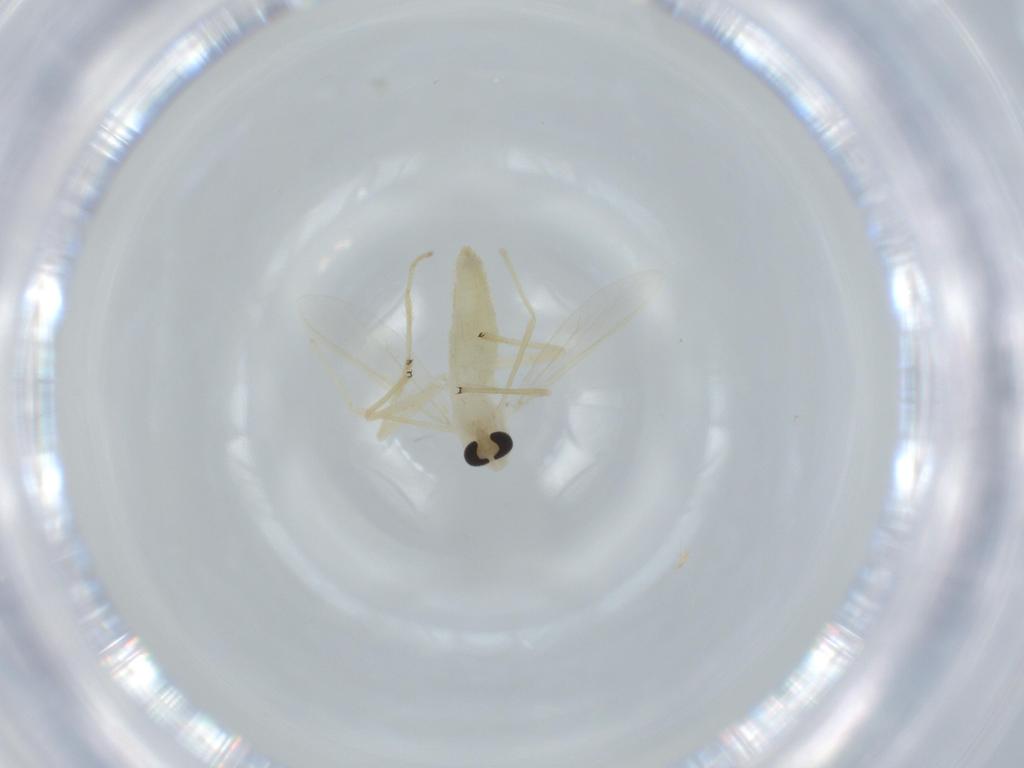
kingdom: Animalia
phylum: Arthropoda
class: Insecta
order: Diptera
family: Chironomidae
